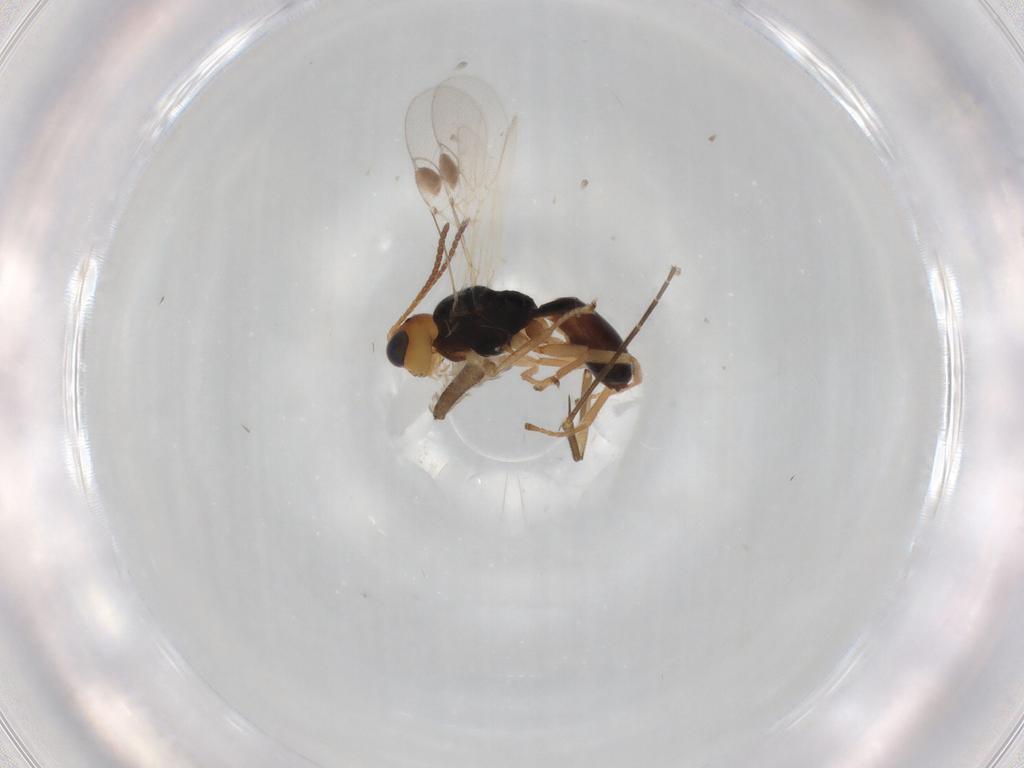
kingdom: Animalia
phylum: Arthropoda
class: Insecta
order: Hymenoptera
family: Braconidae
